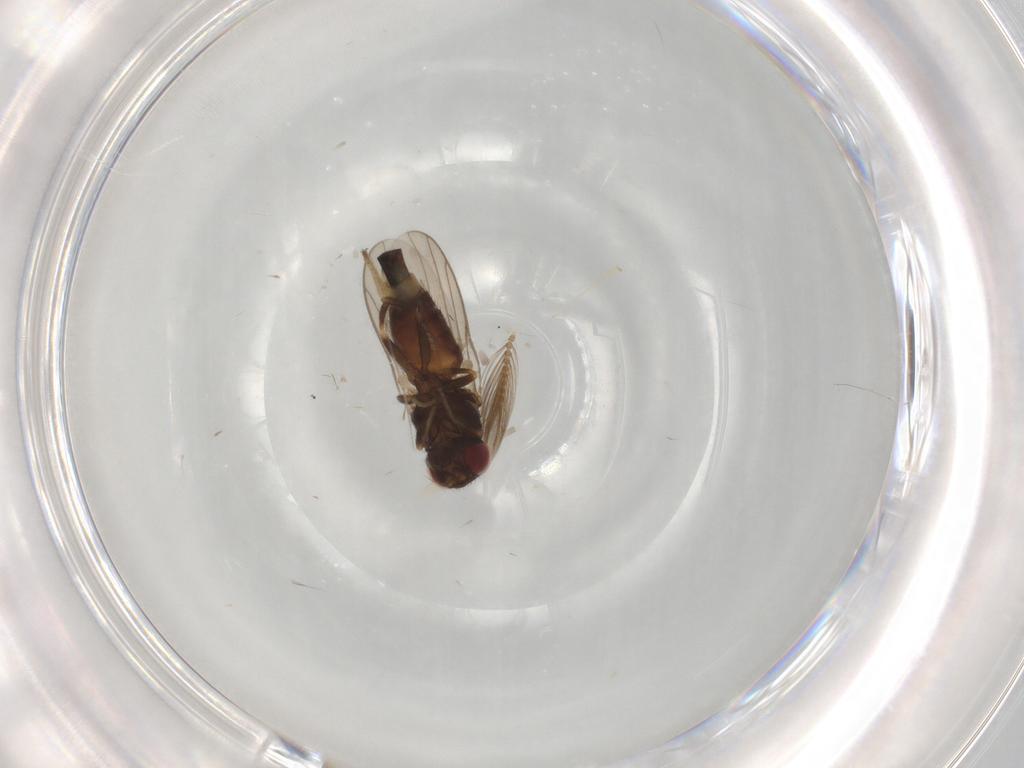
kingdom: Animalia
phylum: Arthropoda
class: Insecta
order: Diptera
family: Chloropidae
